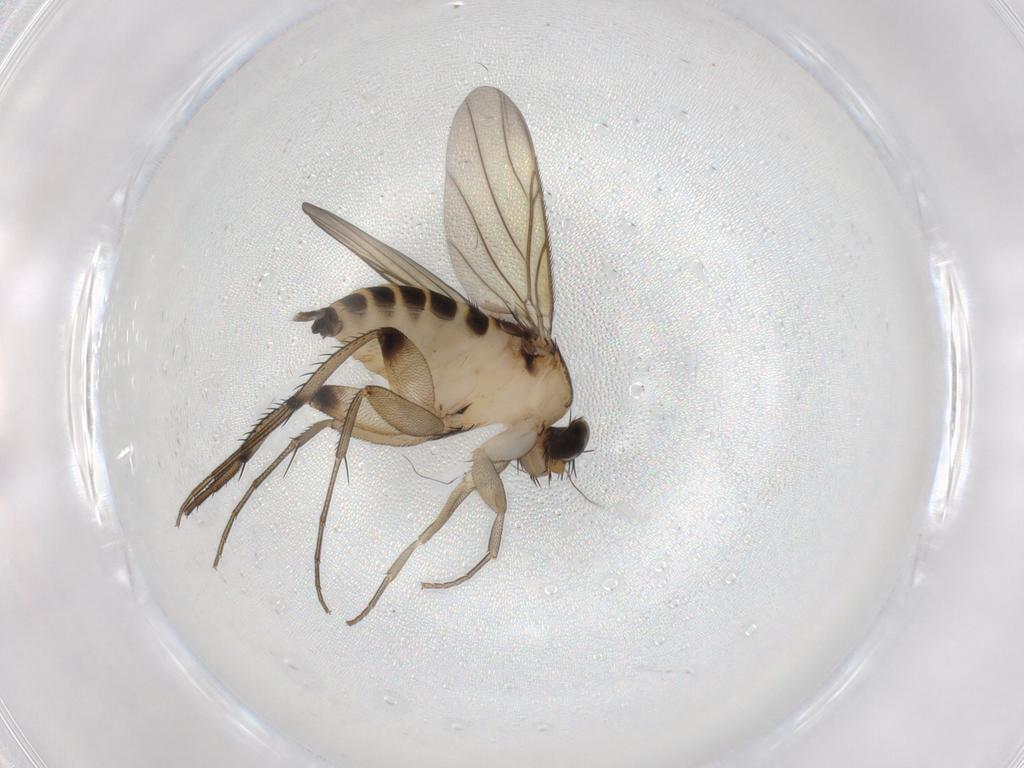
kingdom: Animalia
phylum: Arthropoda
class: Insecta
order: Diptera
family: Phoridae
